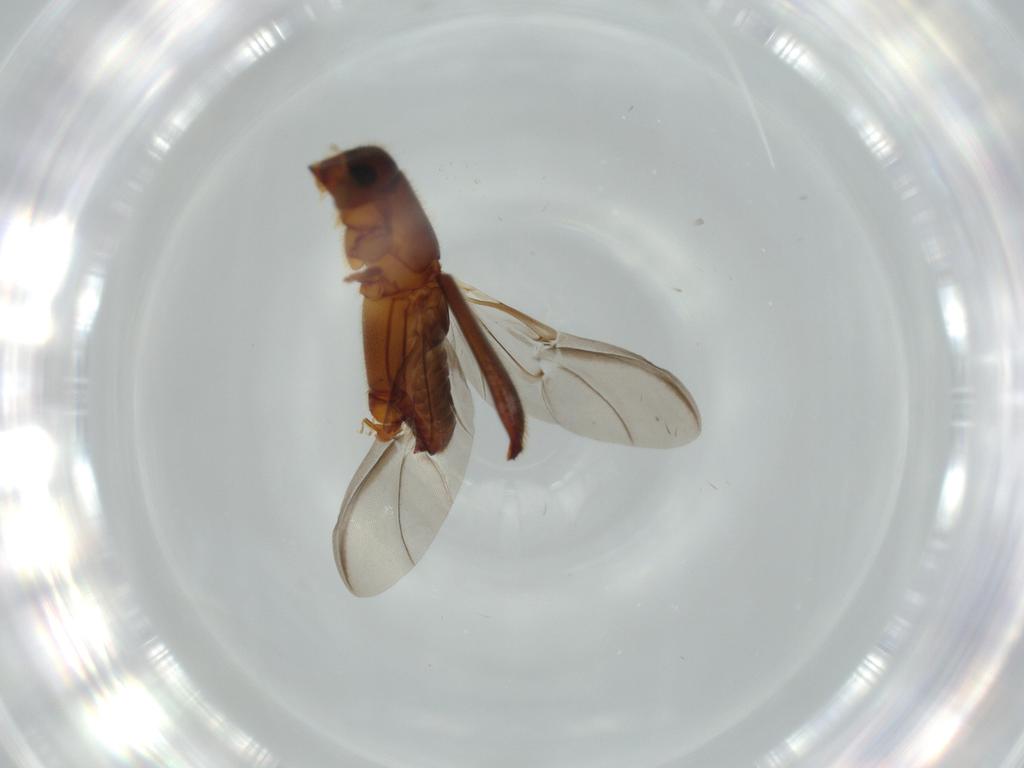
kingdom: Animalia
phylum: Arthropoda
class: Insecta
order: Coleoptera
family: Curculionidae
